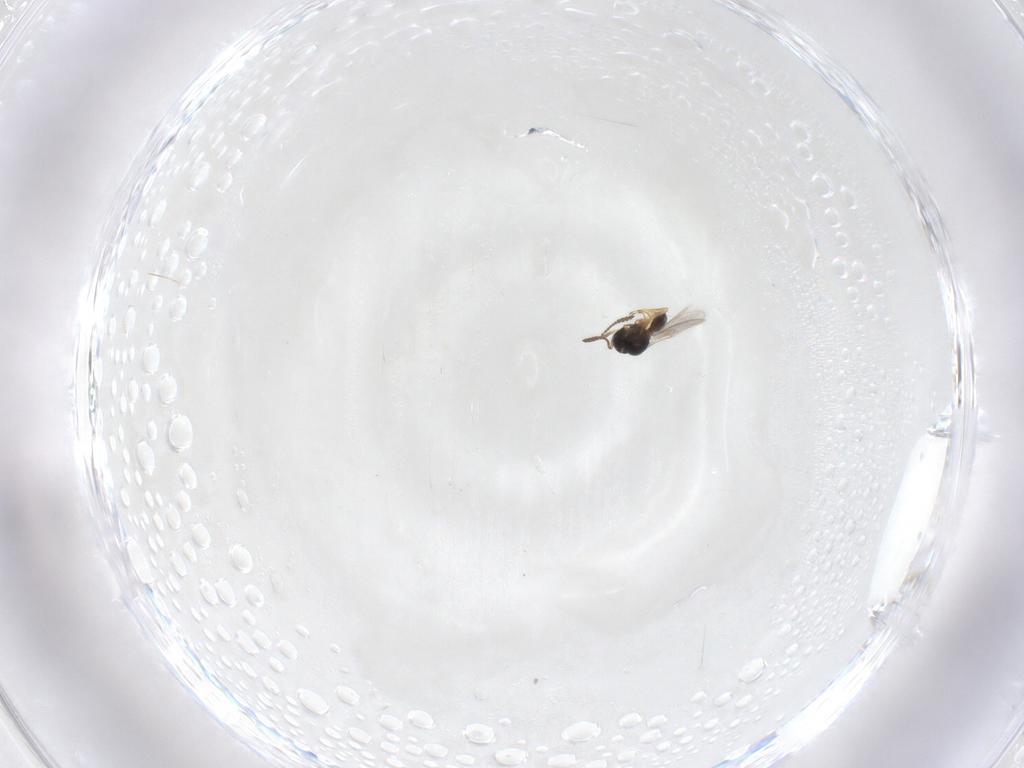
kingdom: Animalia
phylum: Arthropoda
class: Insecta
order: Hymenoptera
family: Scelionidae
